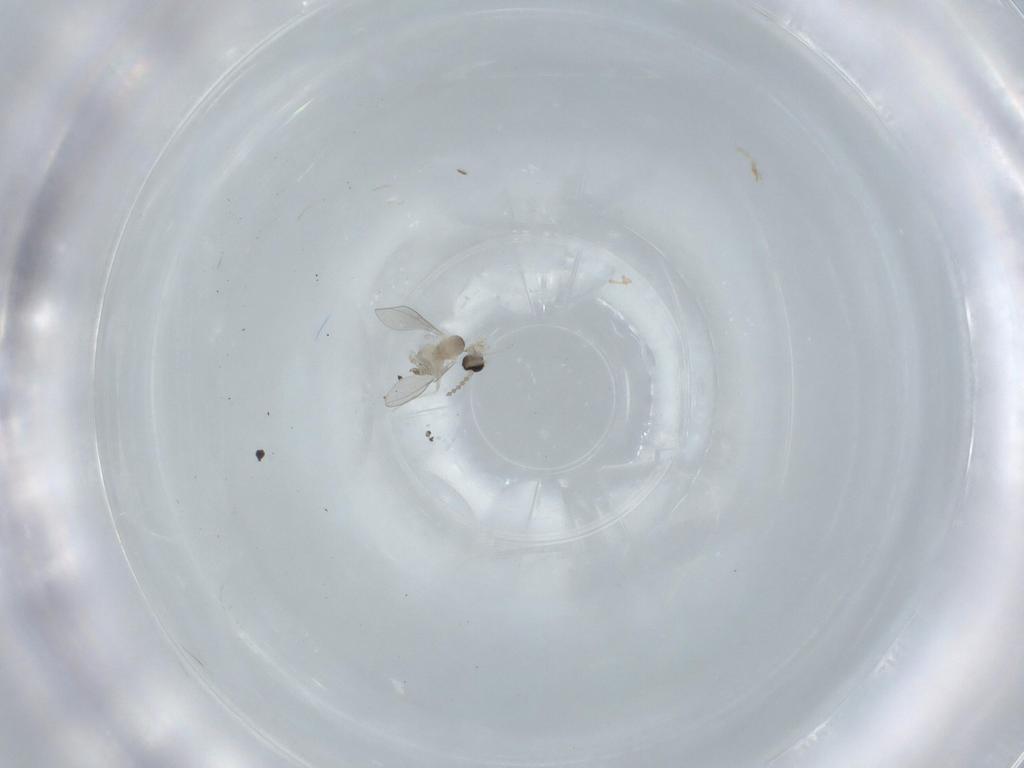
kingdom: Animalia
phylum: Arthropoda
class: Insecta
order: Diptera
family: Cecidomyiidae
